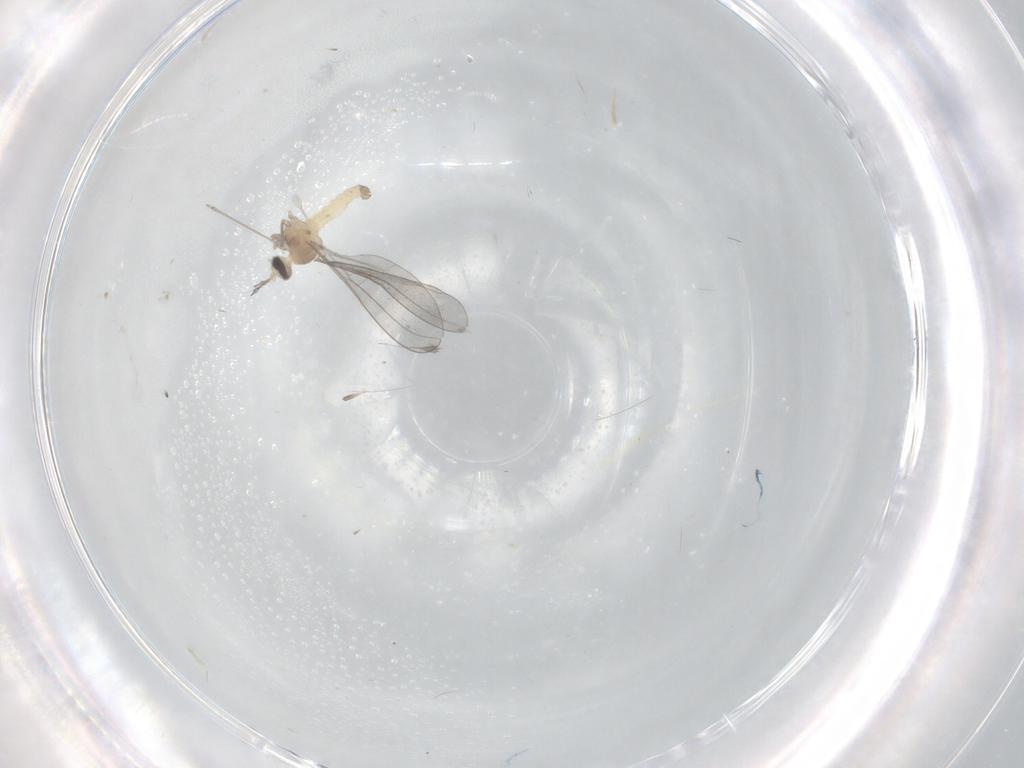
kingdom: Animalia
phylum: Arthropoda
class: Insecta
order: Diptera
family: Cecidomyiidae
